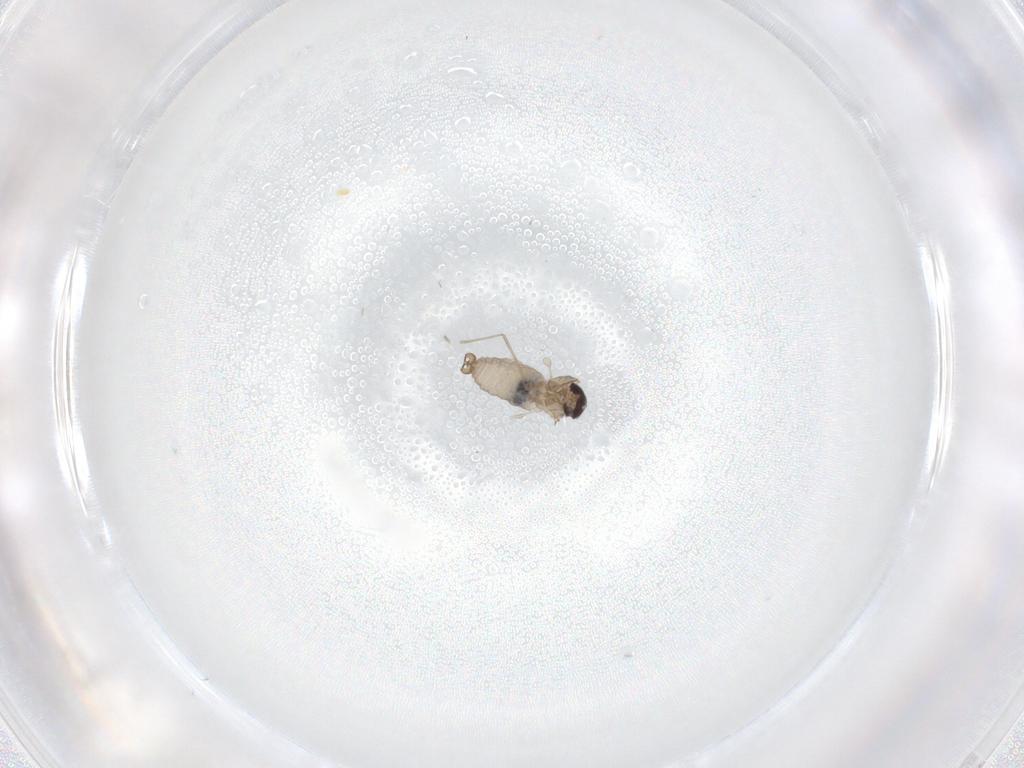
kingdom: Animalia
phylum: Arthropoda
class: Insecta
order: Diptera
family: Cecidomyiidae
